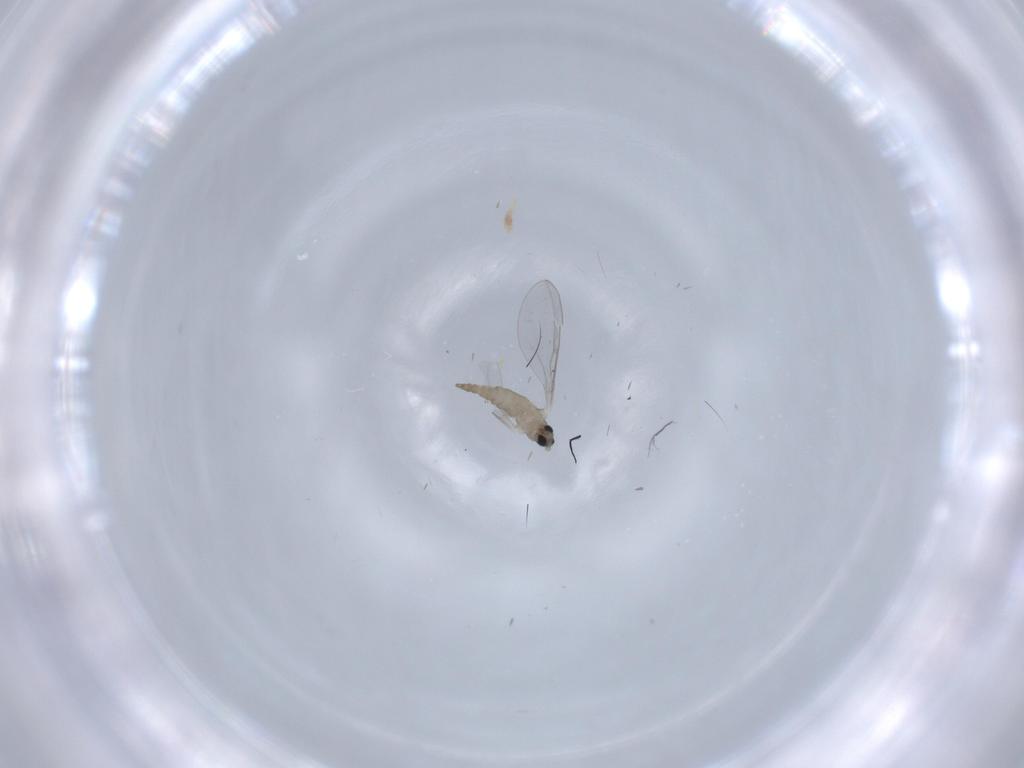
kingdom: Animalia
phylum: Arthropoda
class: Insecta
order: Diptera
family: Cecidomyiidae
